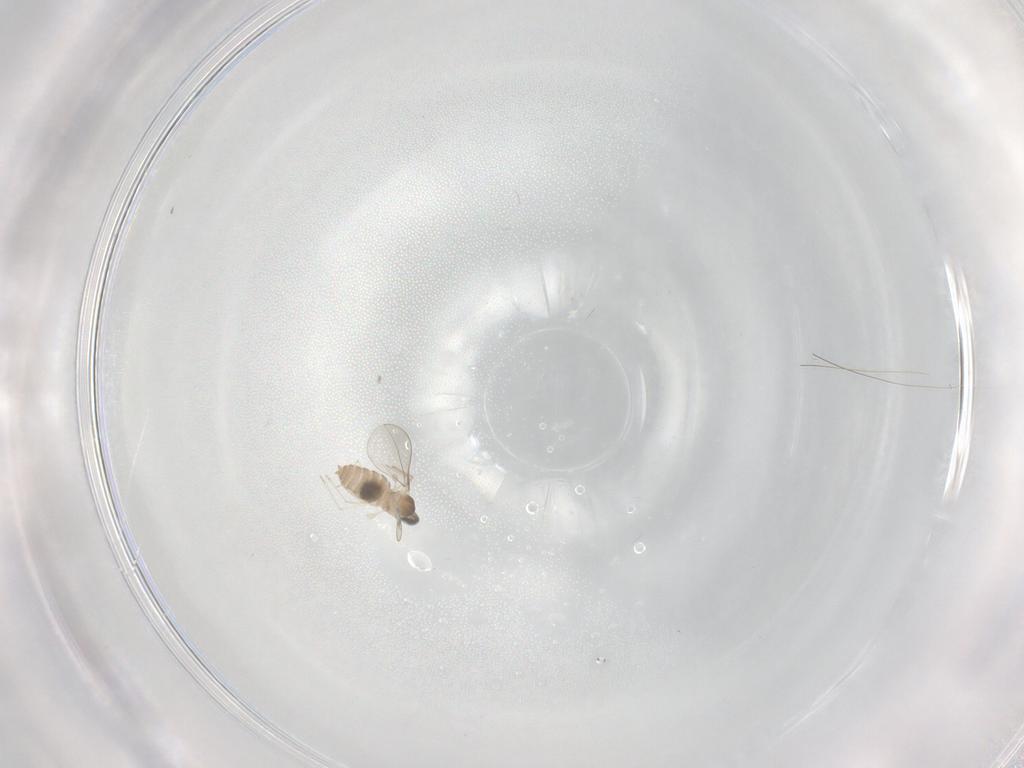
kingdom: Animalia
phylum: Arthropoda
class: Insecta
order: Diptera
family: Cecidomyiidae
